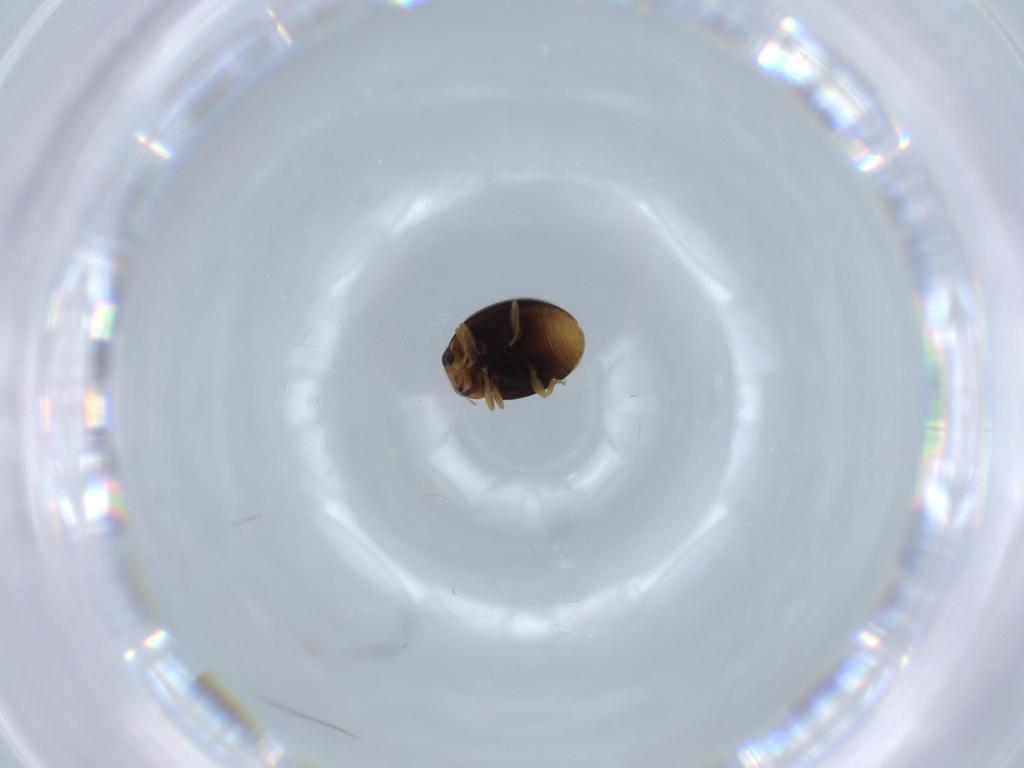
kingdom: Animalia
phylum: Arthropoda
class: Insecta
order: Coleoptera
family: Coccinellidae
